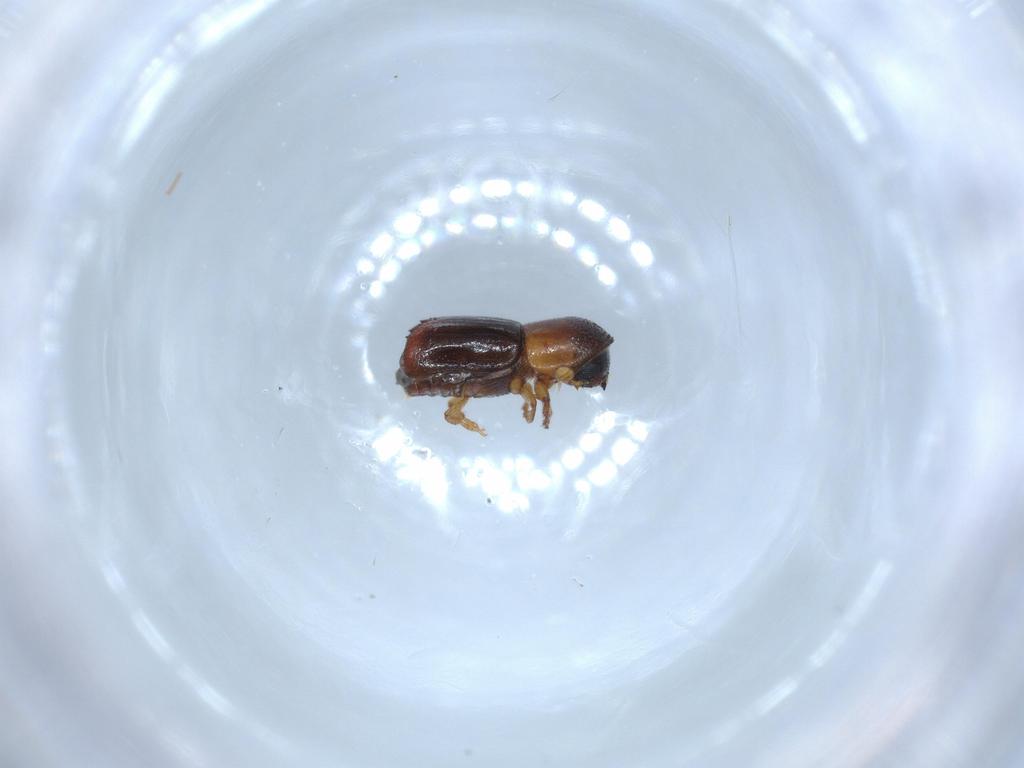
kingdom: Animalia
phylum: Arthropoda
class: Insecta
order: Coleoptera
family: Curculionidae
